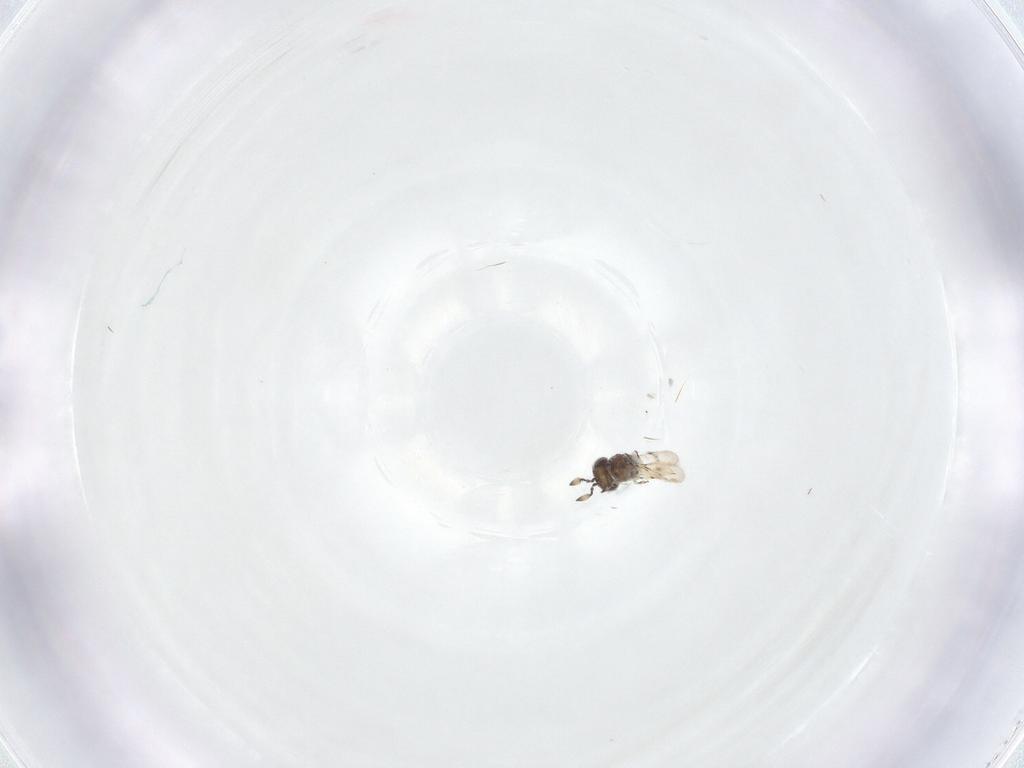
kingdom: Animalia
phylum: Arthropoda
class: Insecta
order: Hymenoptera
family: Scelionidae
